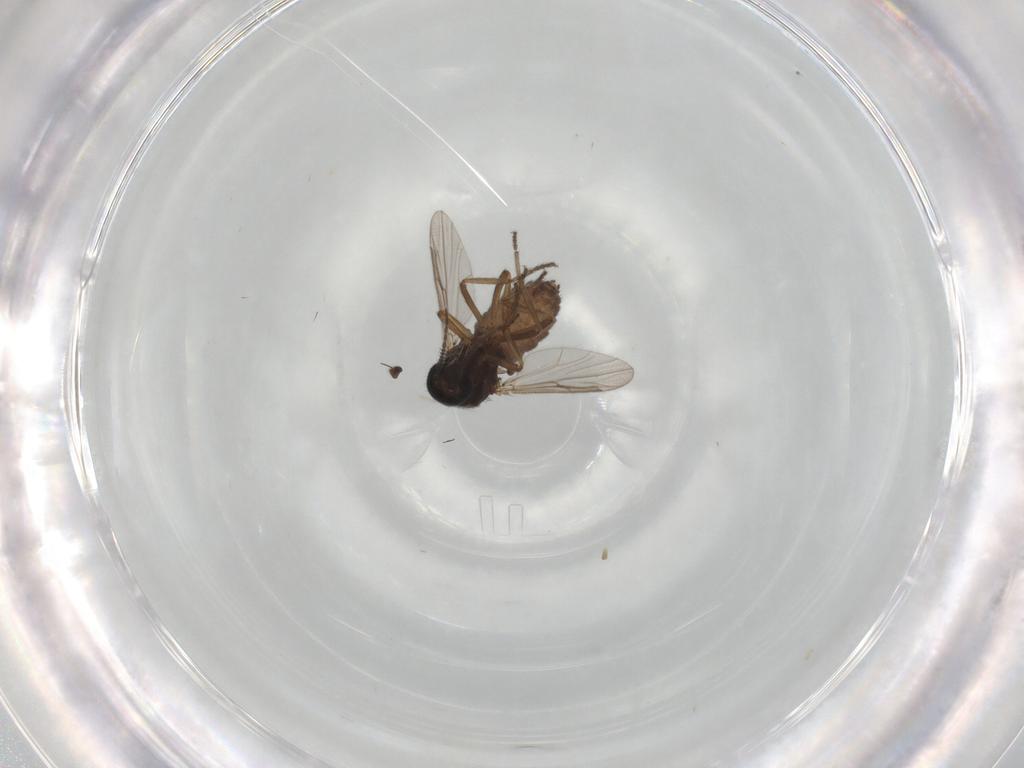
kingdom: Animalia
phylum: Arthropoda
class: Insecta
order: Diptera
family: Ceratopogonidae
